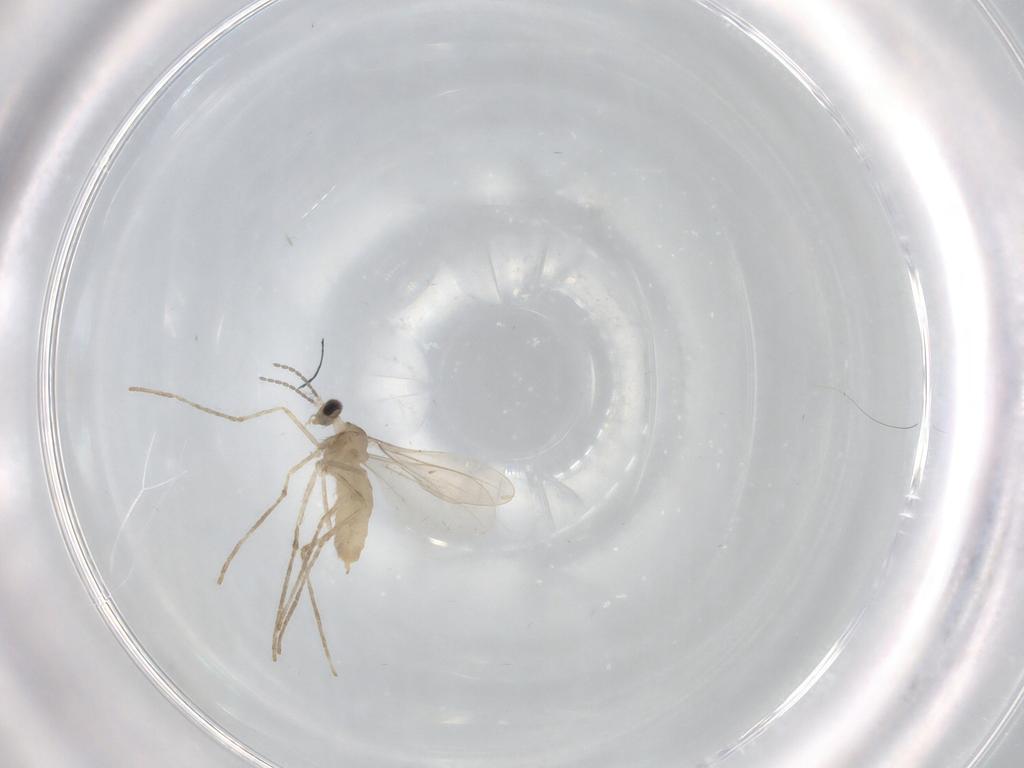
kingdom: Animalia
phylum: Arthropoda
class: Insecta
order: Diptera
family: Cecidomyiidae
